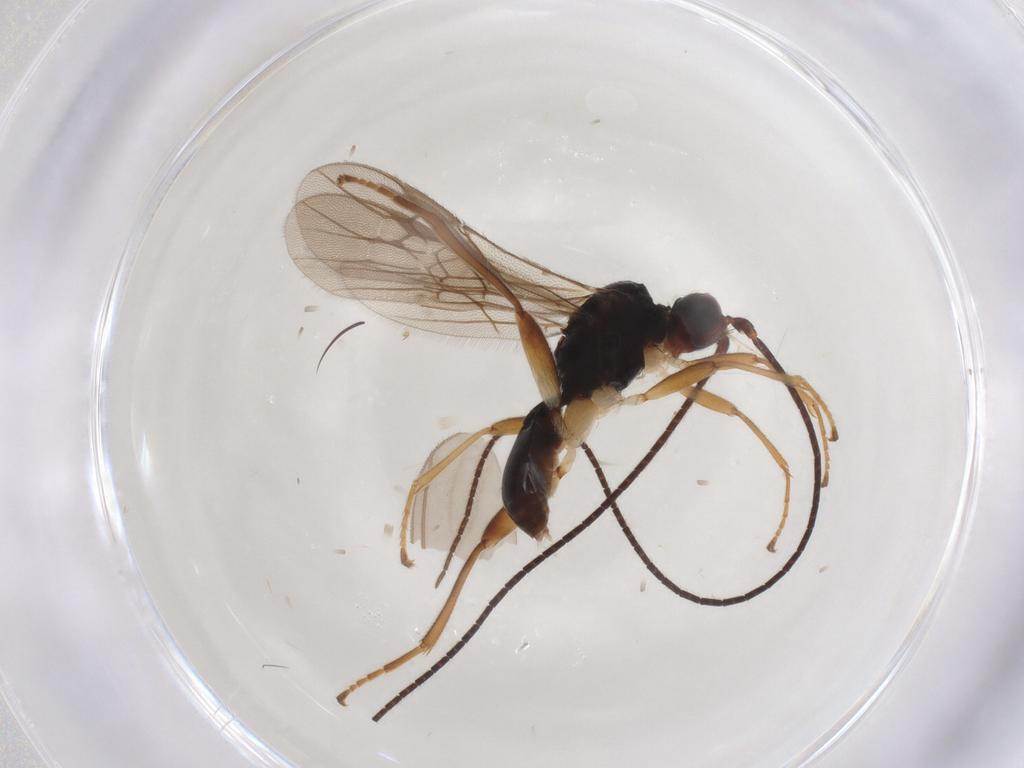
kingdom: Animalia
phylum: Arthropoda
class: Insecta
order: Hymenoptera
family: Braconidae
